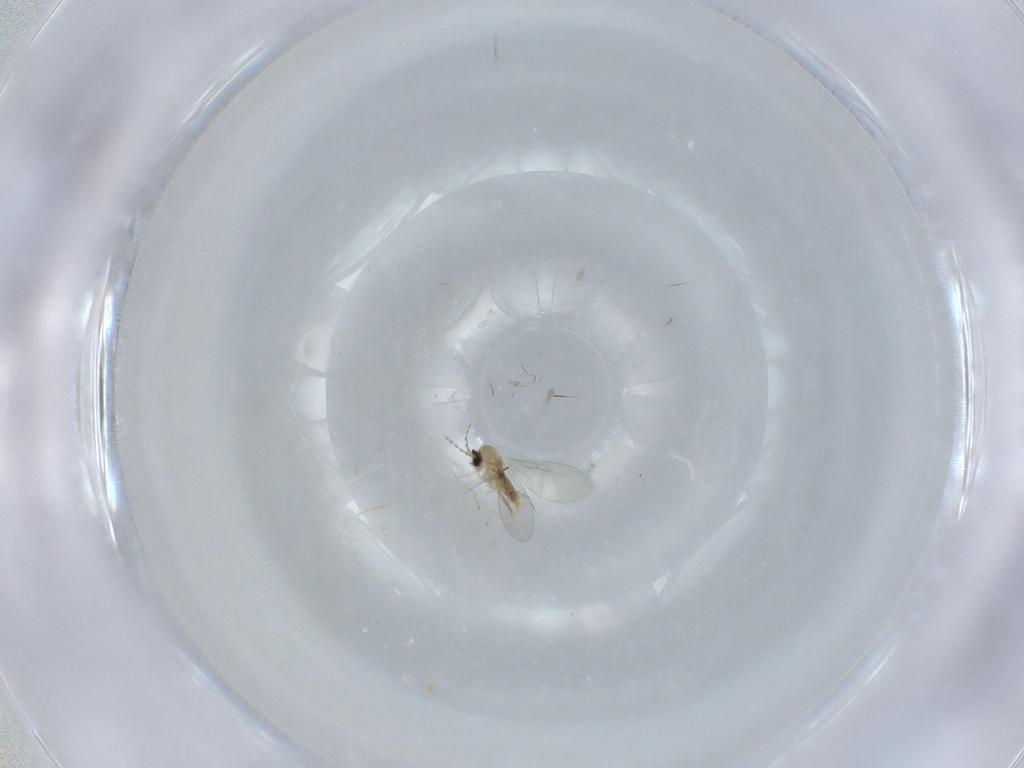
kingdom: Animalia
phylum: Arthropoda
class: Insecta
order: Diptera
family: Cecidomyiidae
